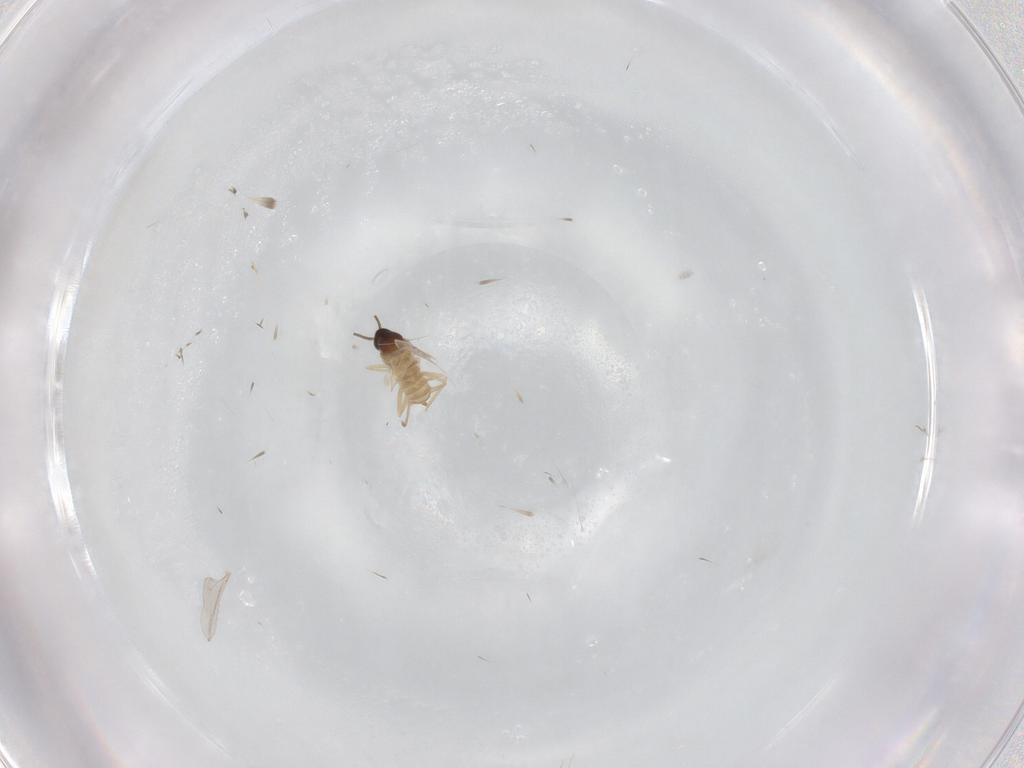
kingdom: Animalia
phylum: Arthropoda
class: Insecta
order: Diptera
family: Cecidomyiidae
